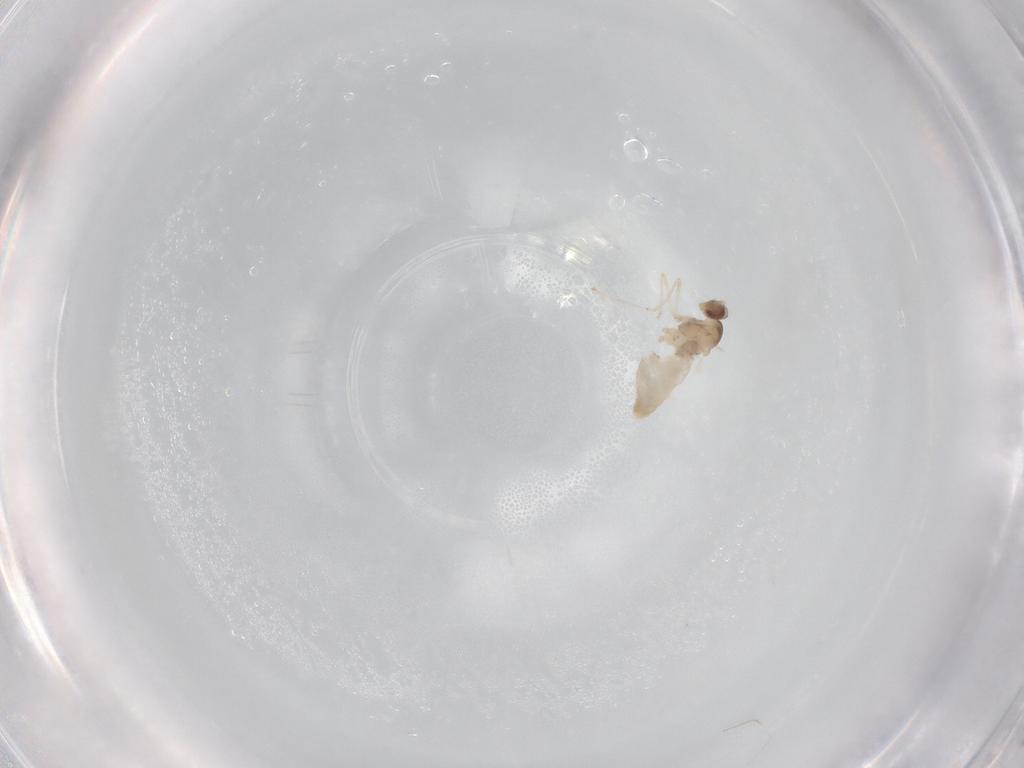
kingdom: Animalia
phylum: Arthropoda
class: Insecta
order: Diptera
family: Cecidomyiidae
